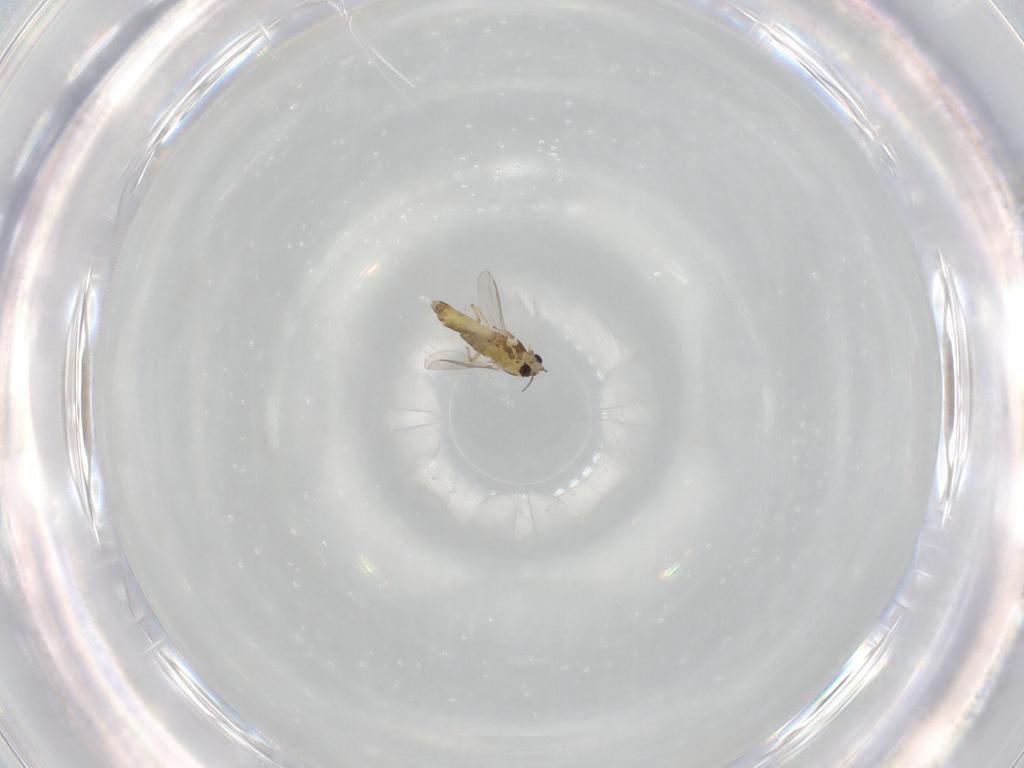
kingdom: Animalia
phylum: Arthropoda
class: Insecta
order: Diptera
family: Chironomidae
